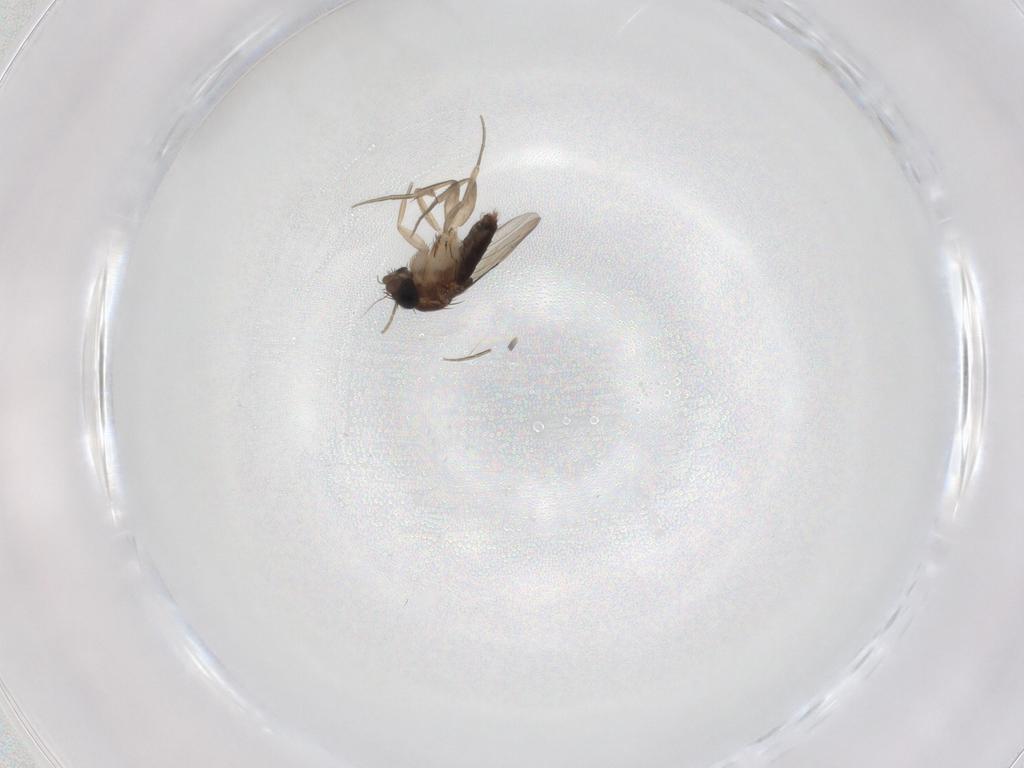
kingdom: Animalia
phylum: Arthropoda
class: Insecta
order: Diptera
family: Phoridae
